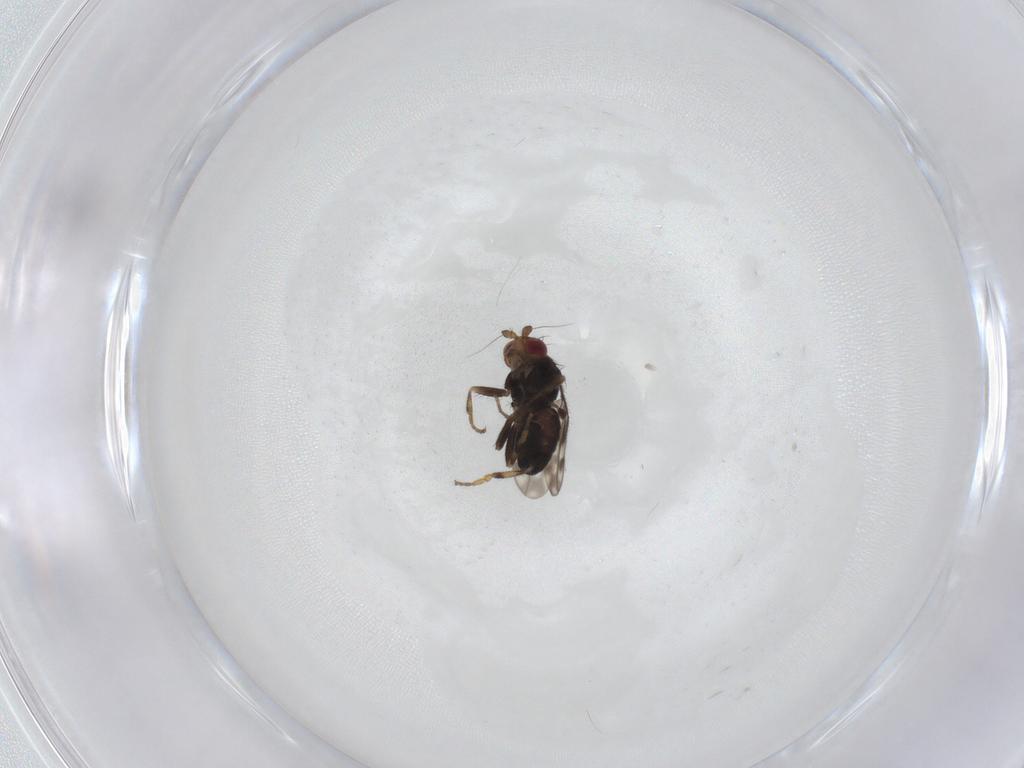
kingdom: Animalia
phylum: Arthropoda
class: Insecta
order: Diptera
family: Sphaeroceridae
